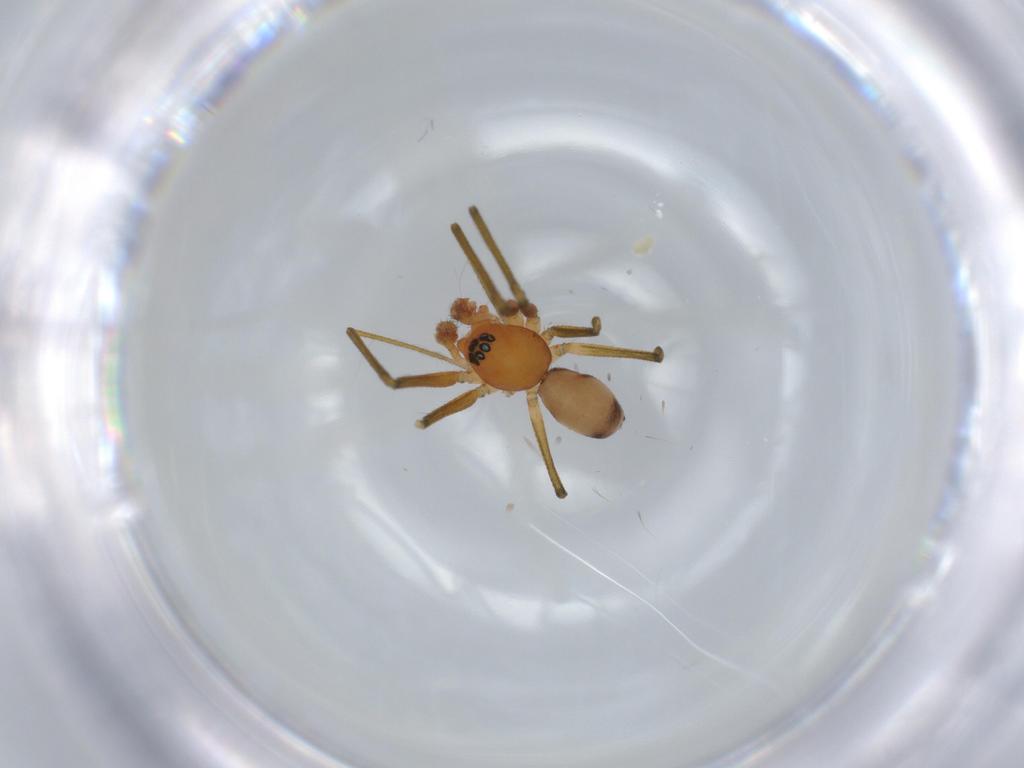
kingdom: Animalia
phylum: Arthropoda
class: Arachnida
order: Araneae
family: Linyphiidae
